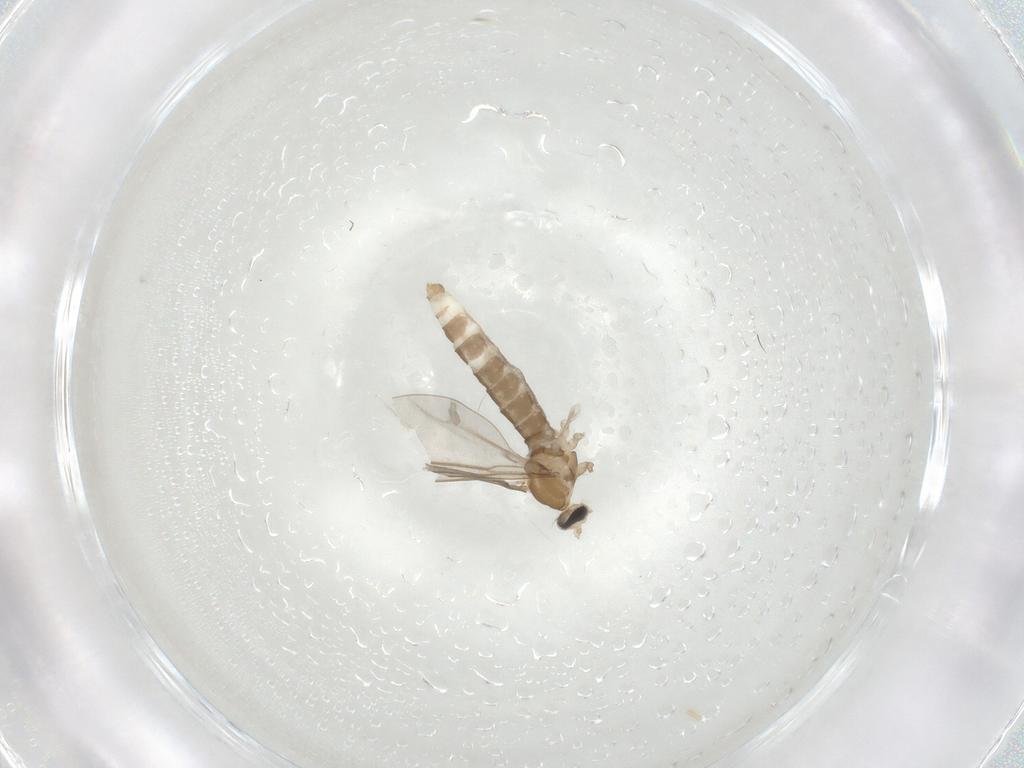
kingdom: Animalia
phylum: Arthropoda
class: Insecta
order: Diptera
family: Cecidomyiidae
